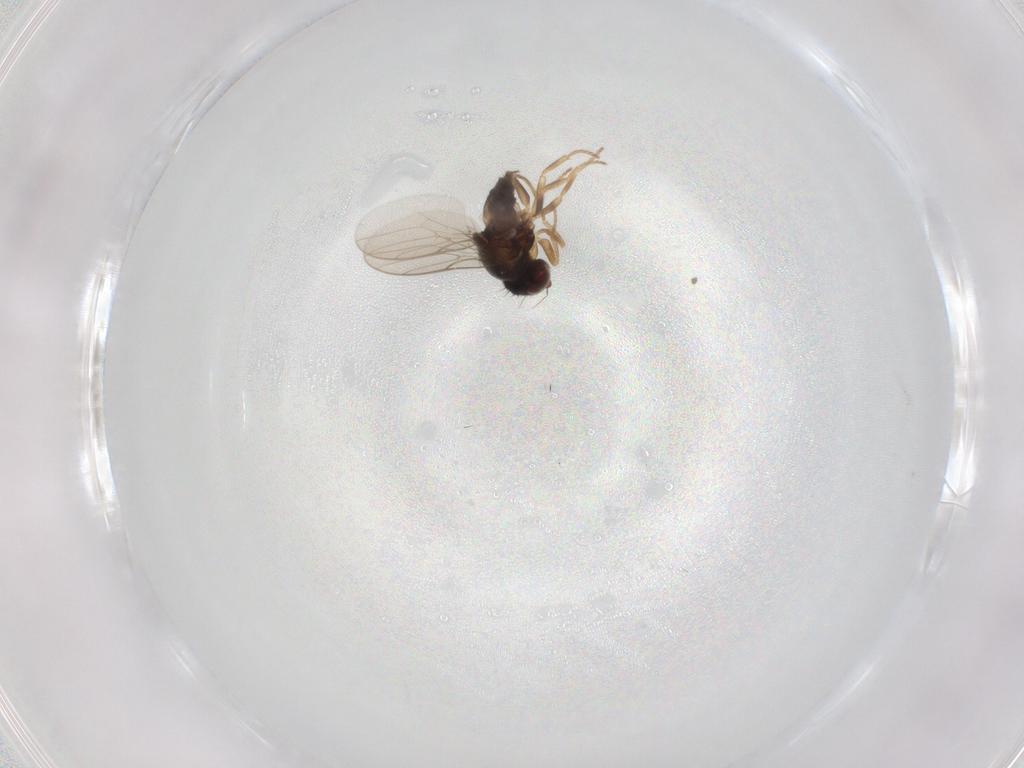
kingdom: Animalia
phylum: Arthropoda
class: Insecta
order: Diptera
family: Chloropidae
